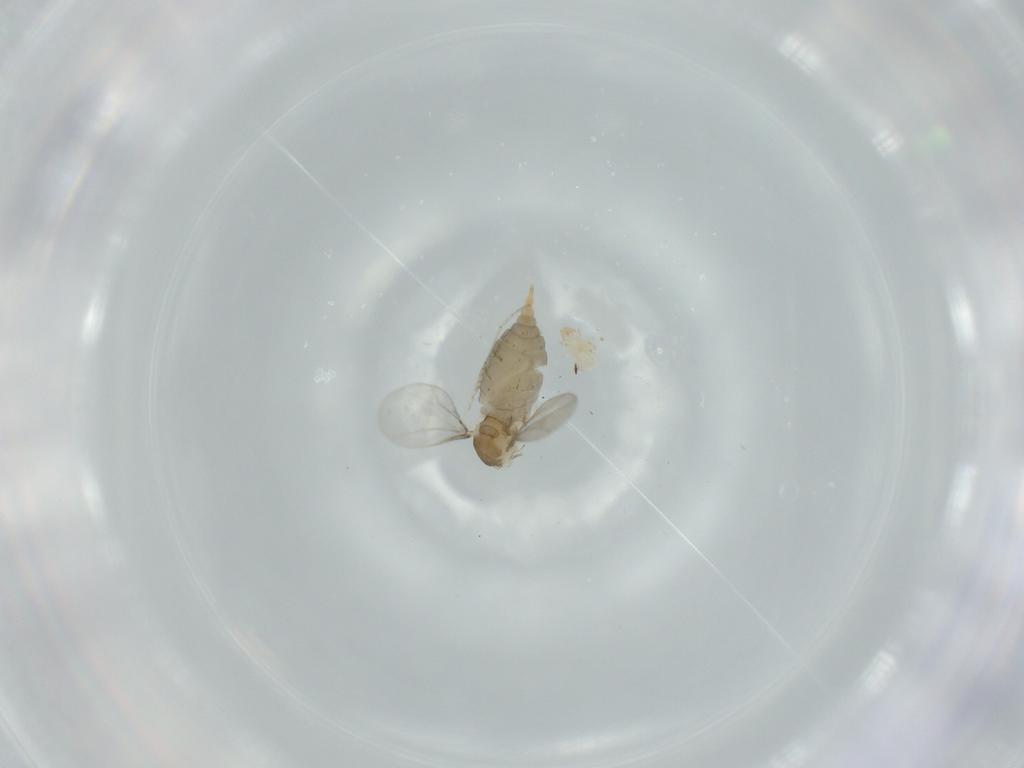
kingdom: Animalia
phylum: Arthropoda
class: Insecta
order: Diptera
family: Cecidomyiidae
